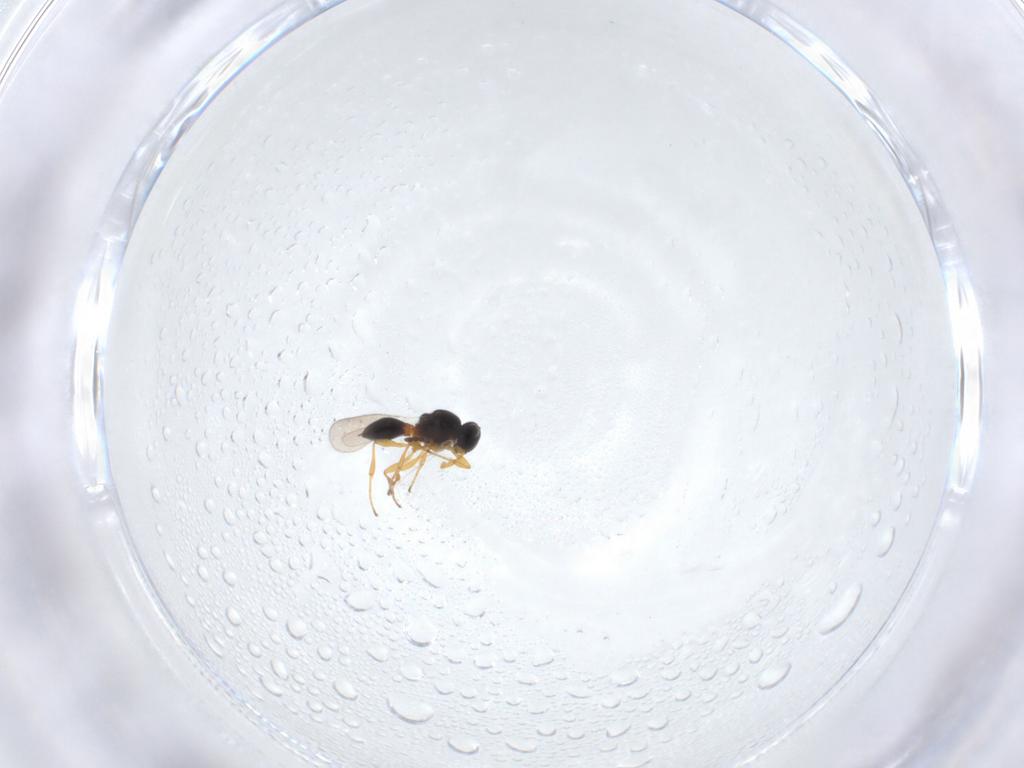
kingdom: Animalia
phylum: Arthropoda
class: Insecta
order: Hymenoptera
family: Platygastridae
